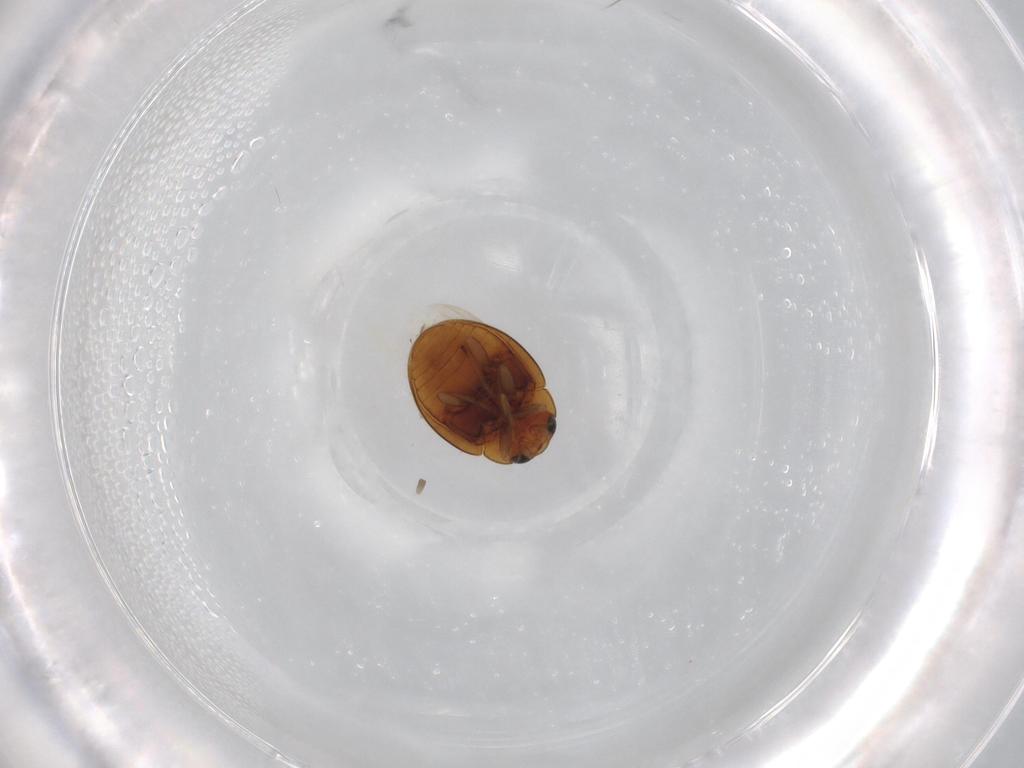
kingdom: Animalia
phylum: Arthropoda
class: Insecta
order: Coleoptera
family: Coccinellidae
